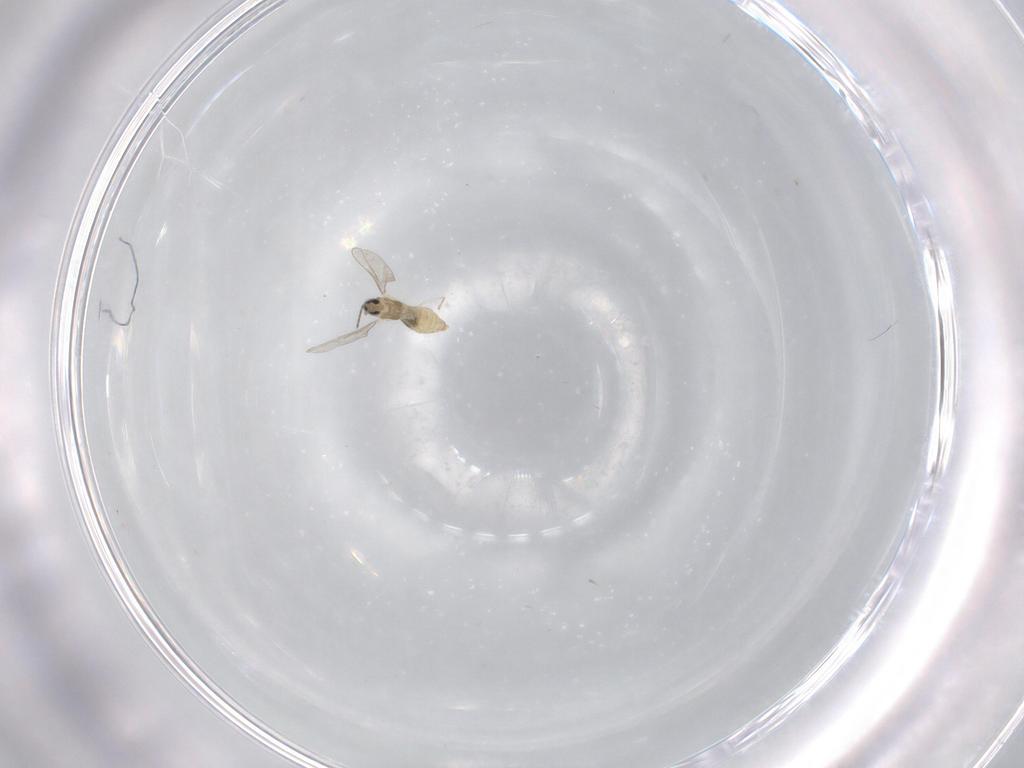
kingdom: Animalia
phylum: Arthropoda
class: Insecta
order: Diptera
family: Cecidomyiidae
